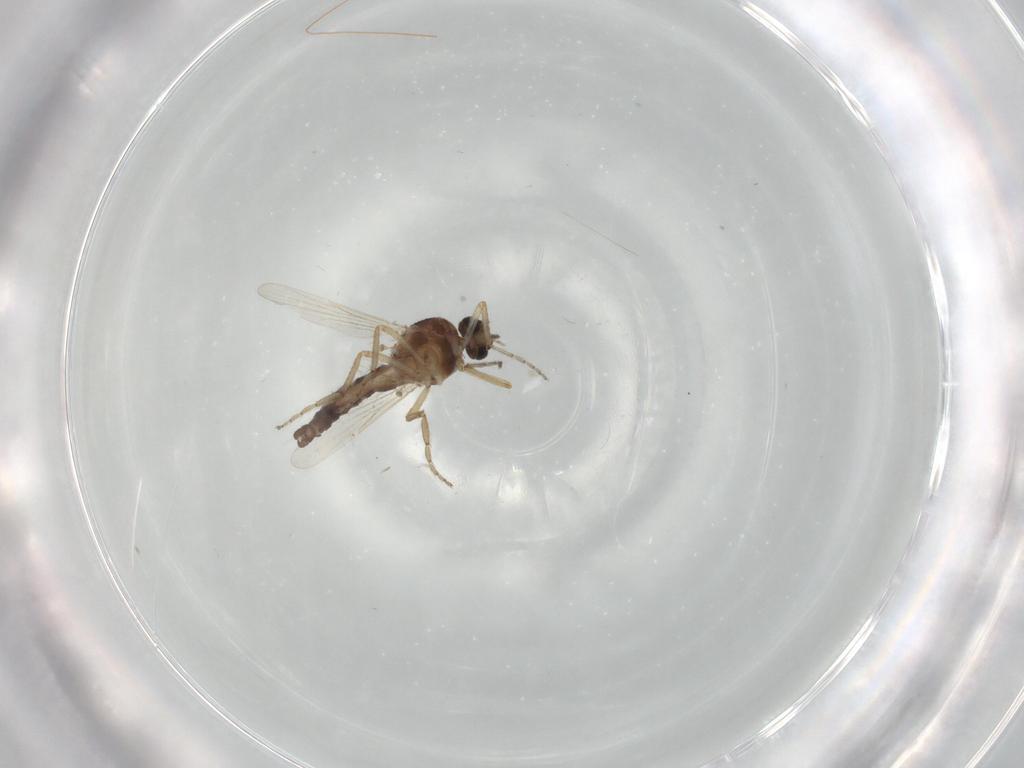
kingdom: Animalia
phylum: Arthropoda
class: Insecta
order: Diptera
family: Ceratopogonidae
